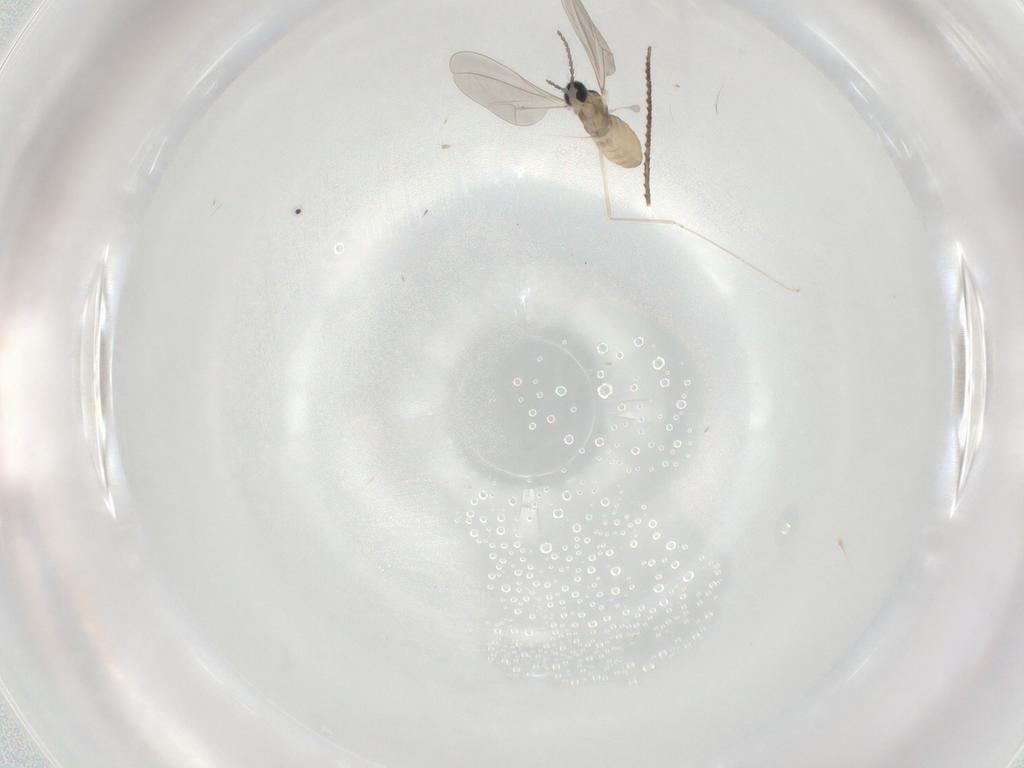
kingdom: Animalia
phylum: Arthropoda
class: Insecta
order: Diptera
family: Cecidomyiidae
